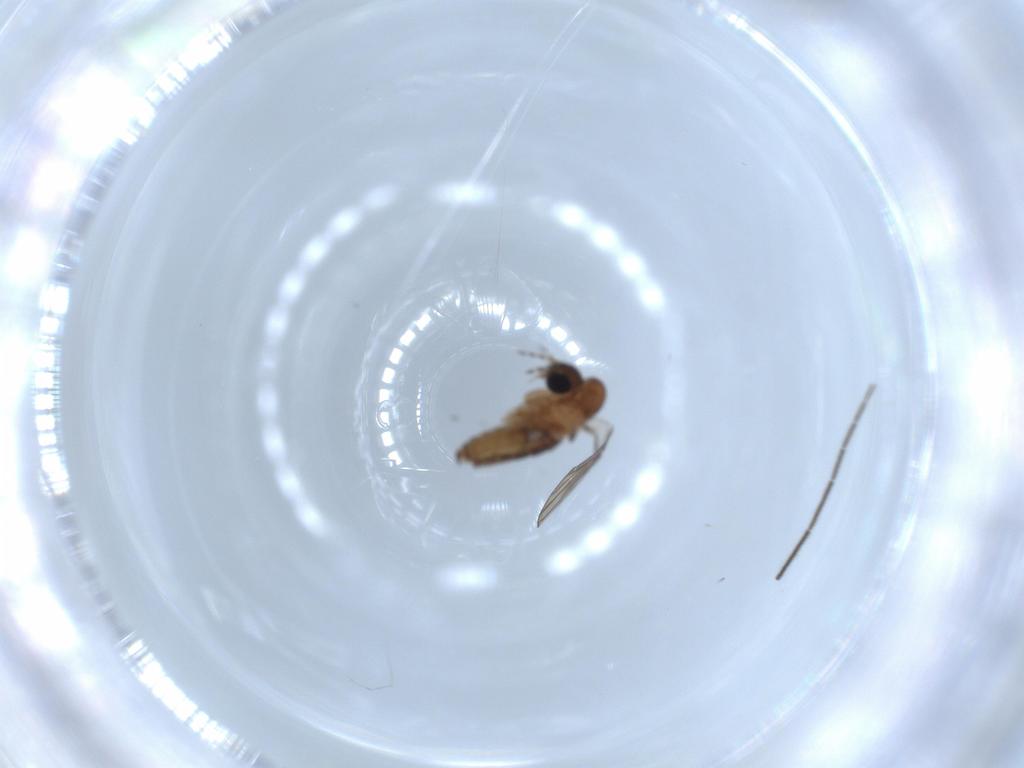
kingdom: Animalia
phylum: Arthropoda
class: Insecta
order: Diptera
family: Psychodidae
